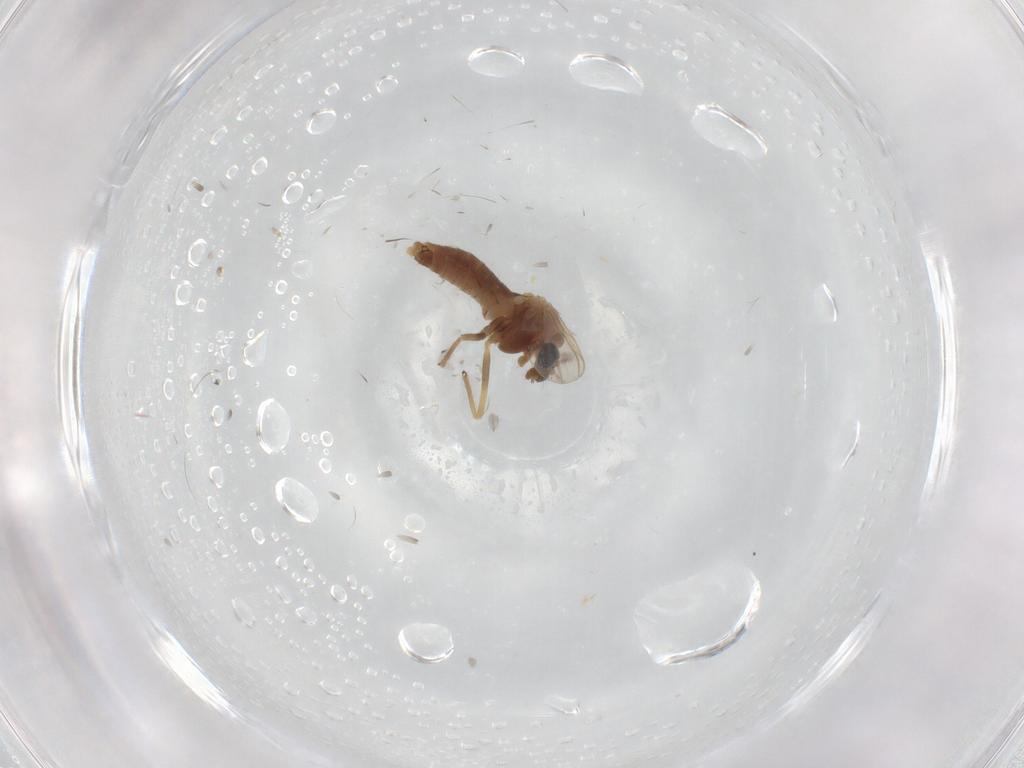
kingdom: Animalia
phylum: Arthropoda
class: Insecta
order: Diptera
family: Chironomidae
